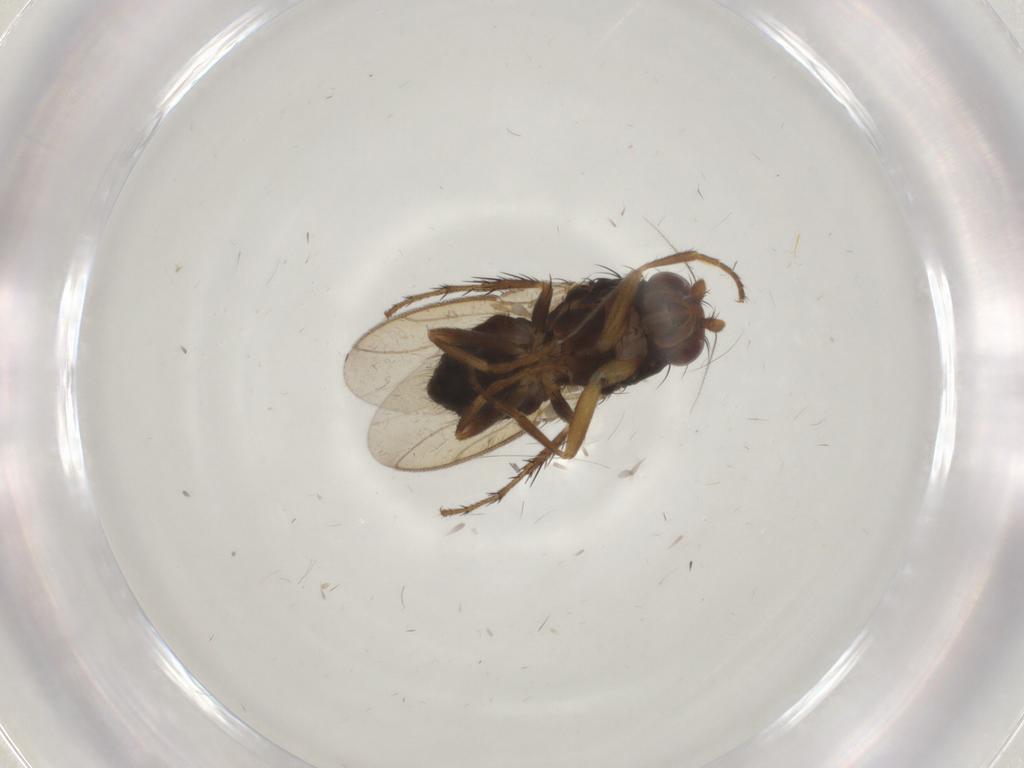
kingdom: Animalia
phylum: Arthropoda
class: Insecta
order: Diptera
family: Sphaeroceridae
